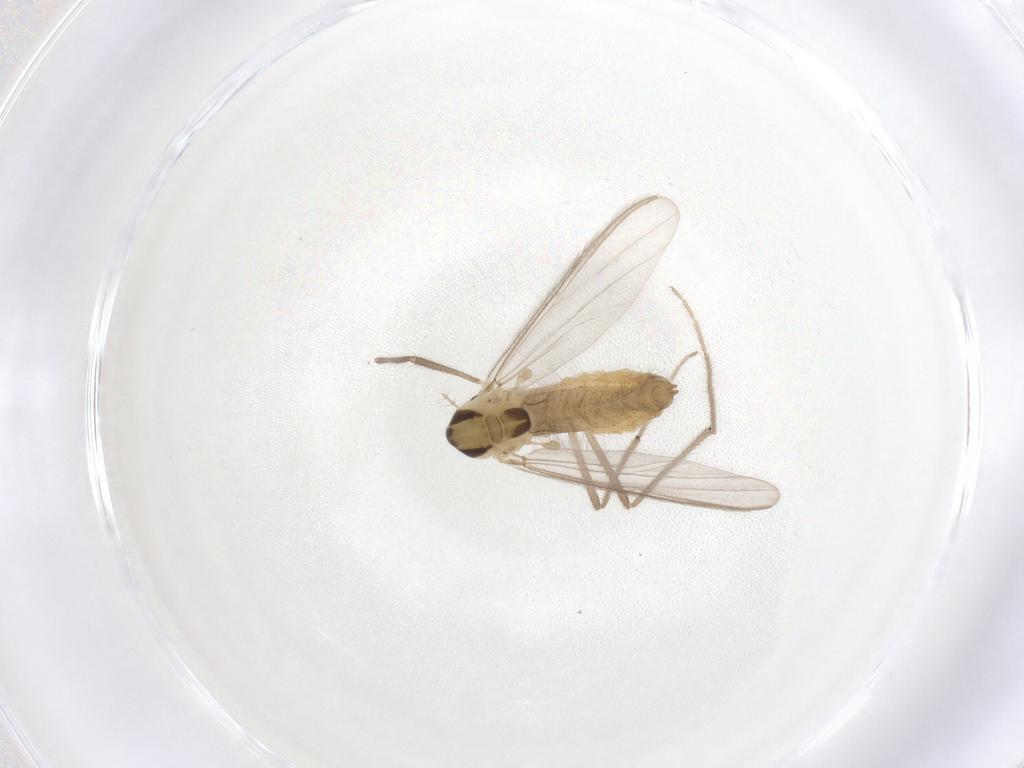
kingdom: Animalia
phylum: Arthropoda
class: Insecta
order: Diptera
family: Chironomidae
